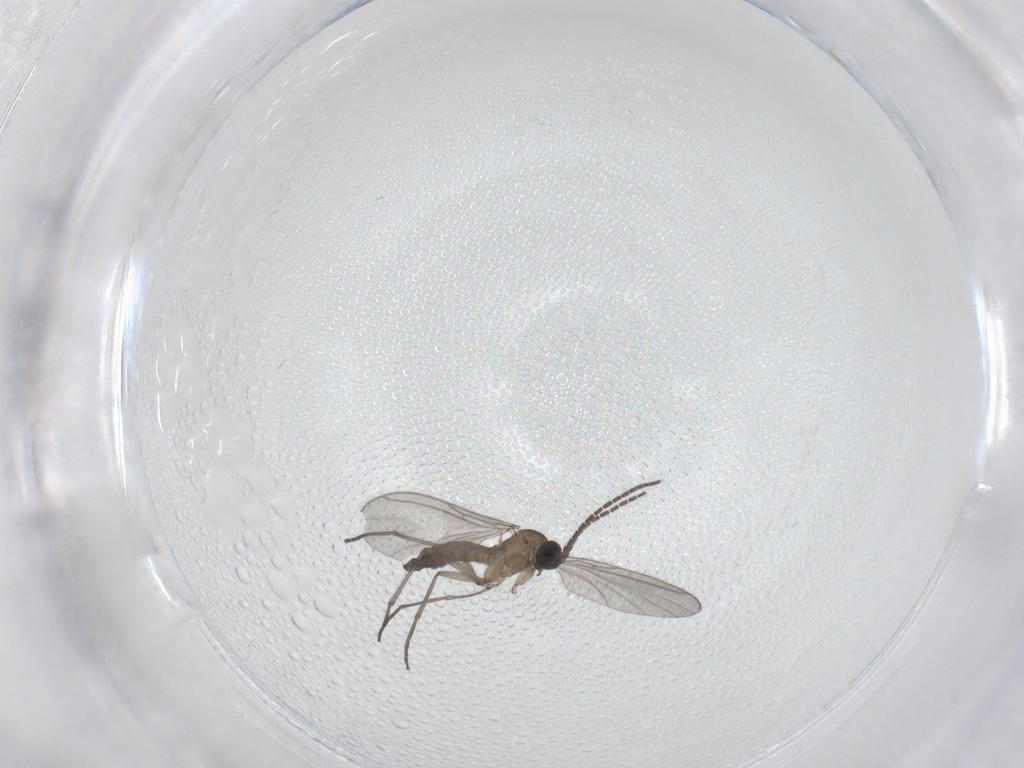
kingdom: Animalia
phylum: Arthropoda
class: Insecta
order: Diptera
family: Sciaridae
